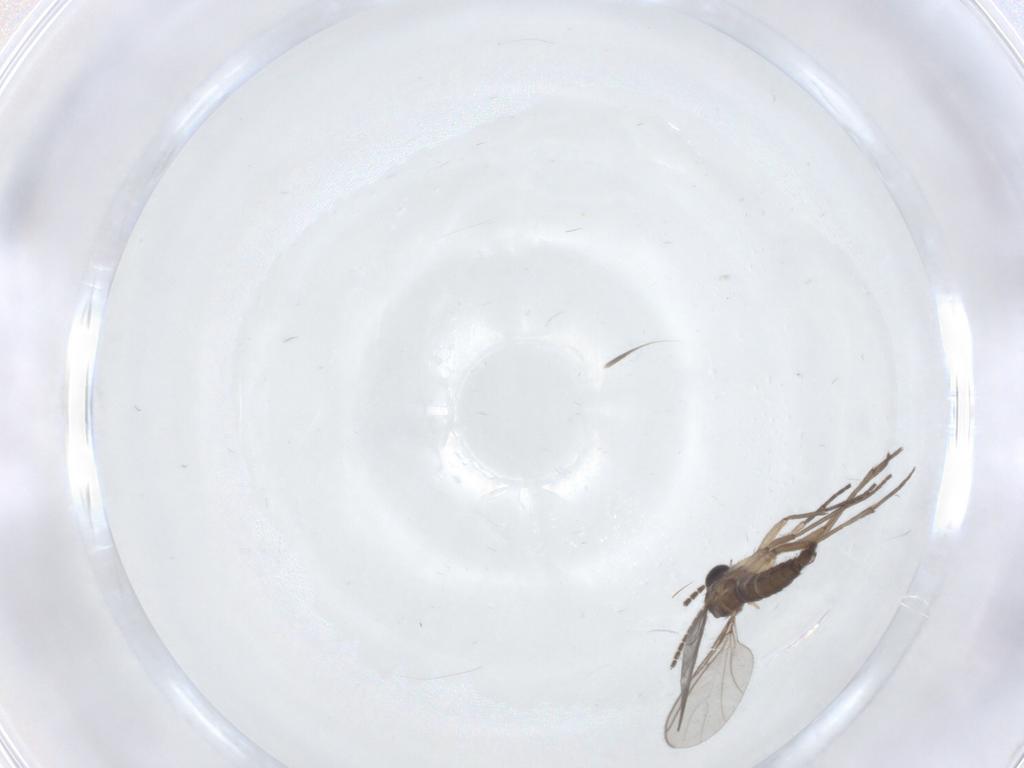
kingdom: Animalia
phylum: Arthropoda
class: Insecta
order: Diptera
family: Sciaridae
